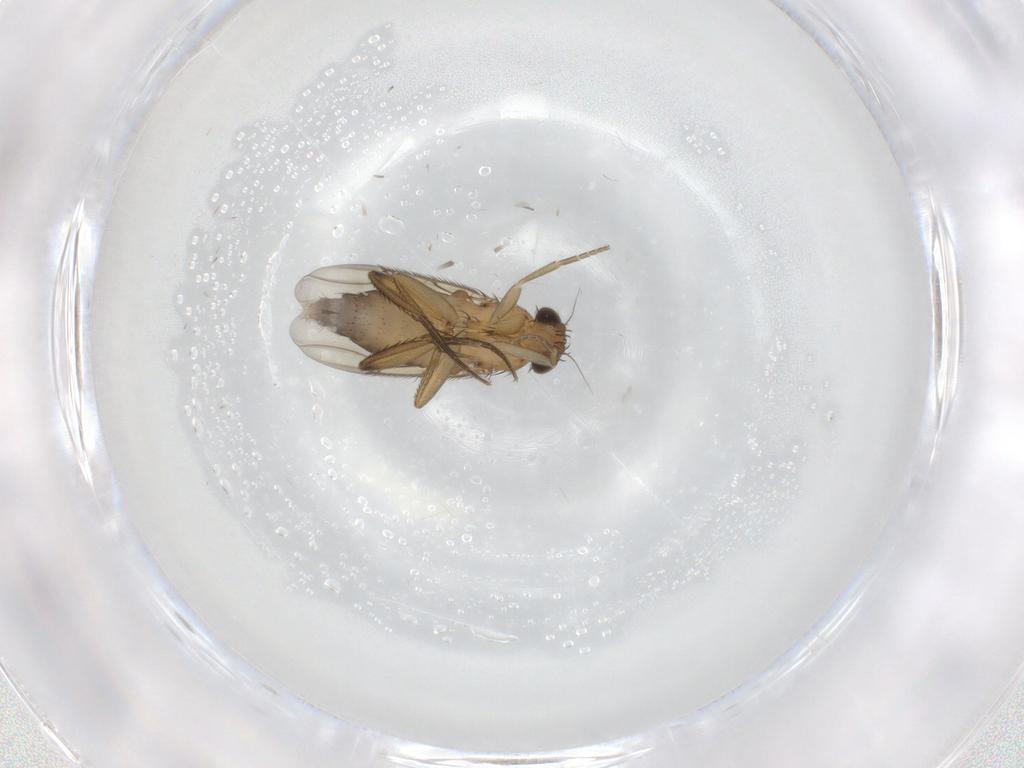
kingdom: Animalia
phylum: Arthropoda
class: Insecta
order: Diptera
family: Phoridae
